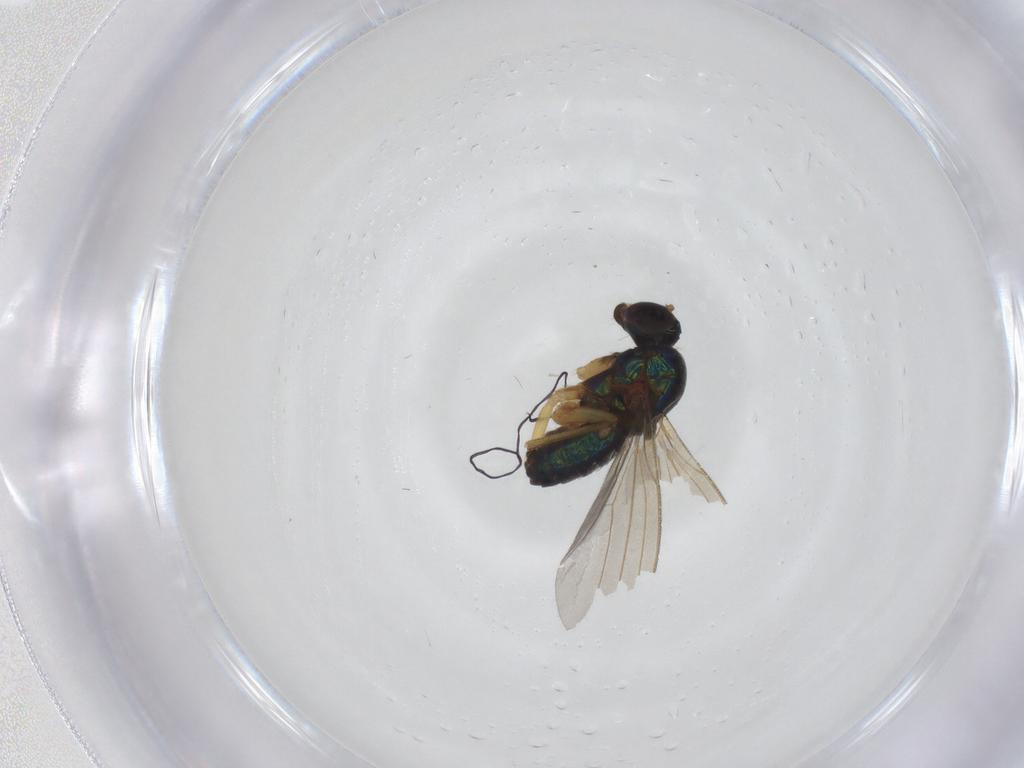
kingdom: Animalia
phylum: Arthropoda
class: Insecta
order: Diptera
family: Dolichopodidae
